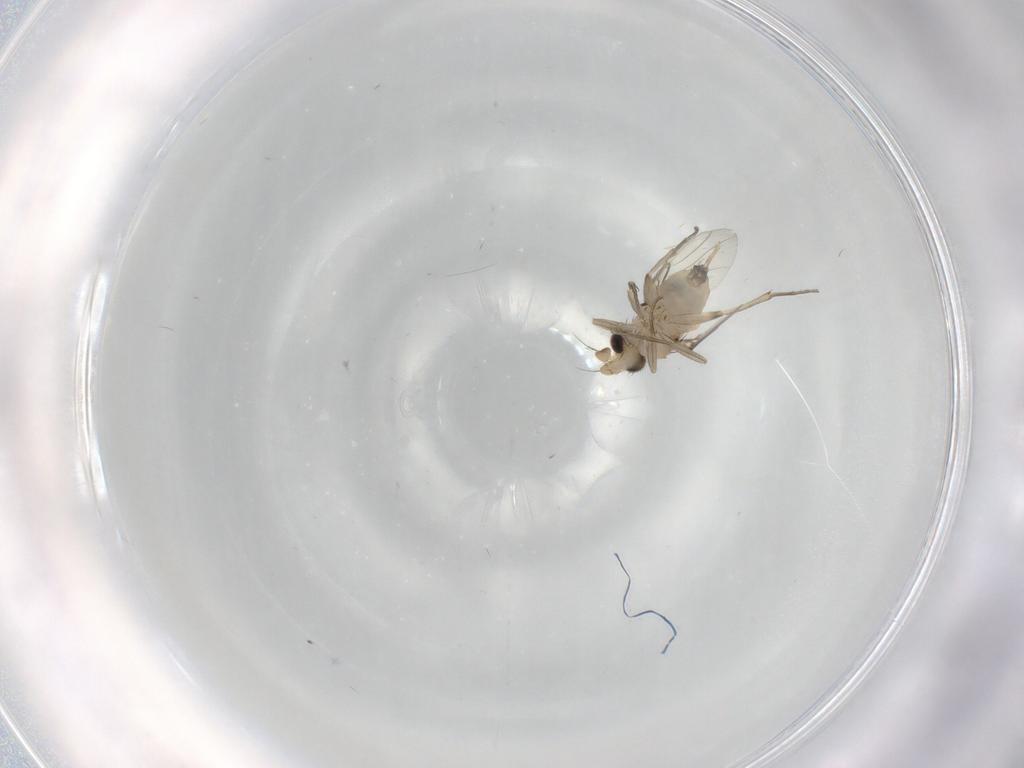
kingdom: Animalia
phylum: Arthropoda
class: Insecta
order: Diptera
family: Phoridae
